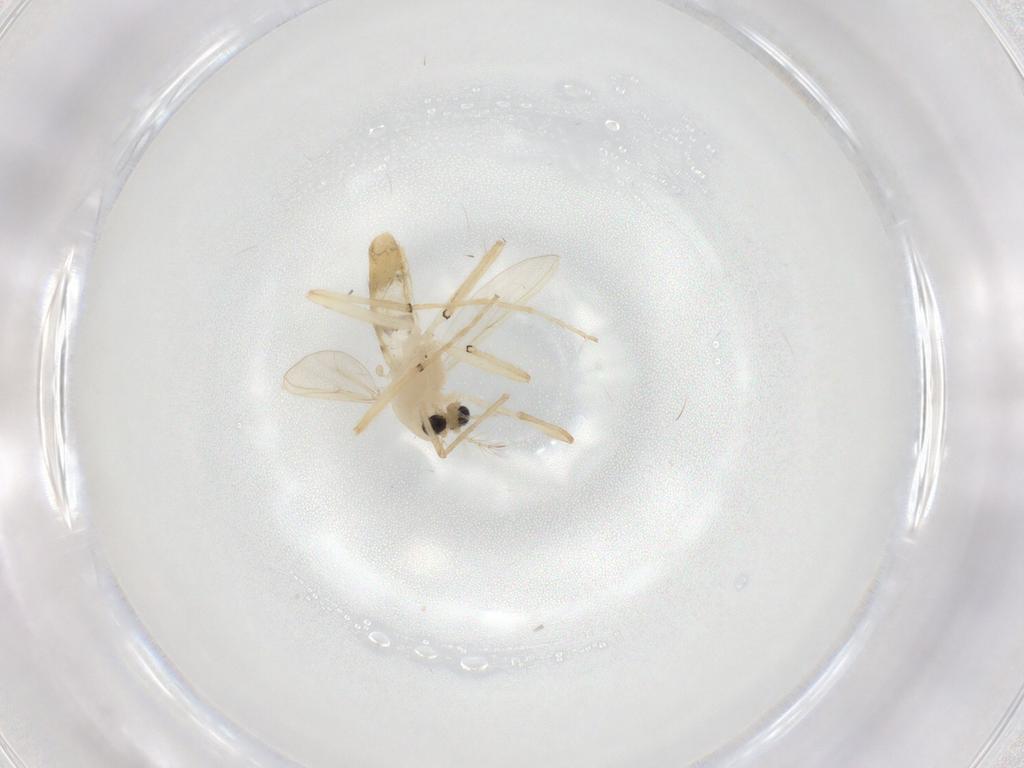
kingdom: Animalia
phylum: Arthropoda
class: Insecta
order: Diptera
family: Chironomidae
